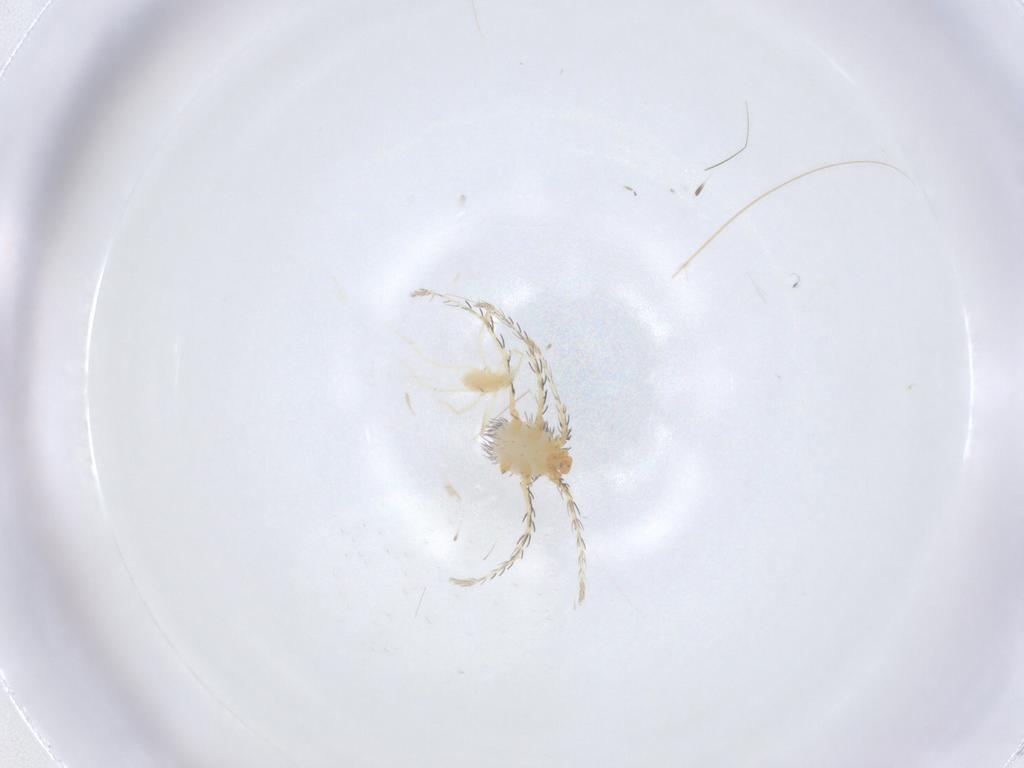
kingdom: Animalia
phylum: Arthropoda
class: Arachnida
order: Trombidiformes
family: Erythraeidae
